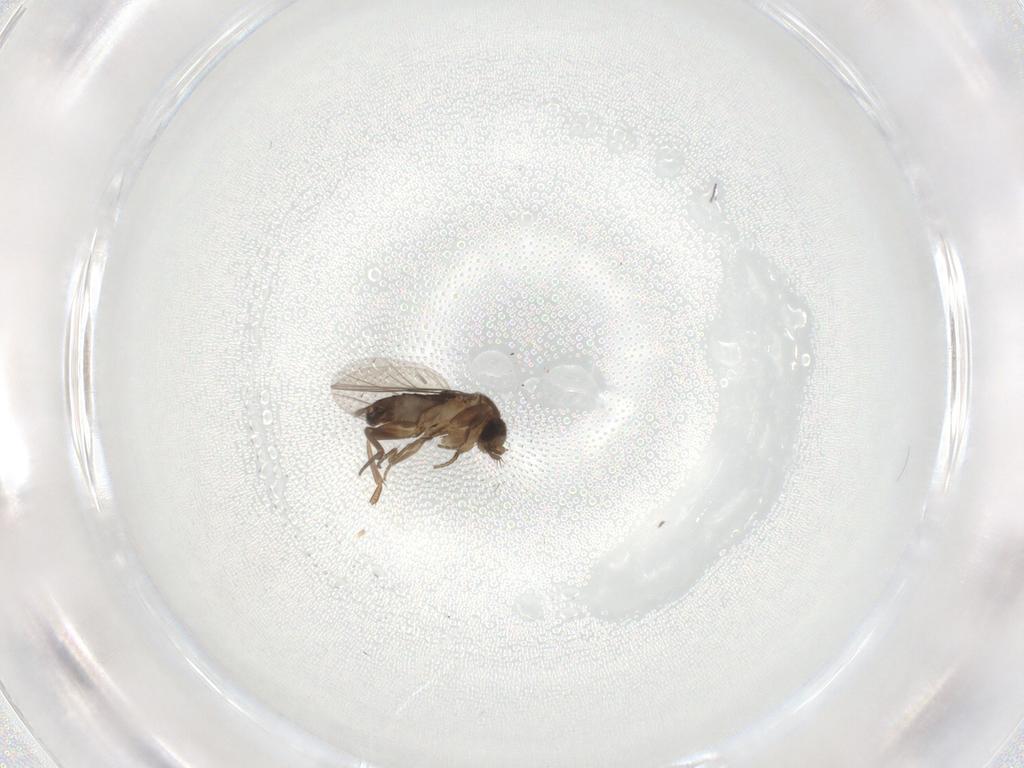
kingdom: Animalia
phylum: Arthropoda
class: Insecta
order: Diptera
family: Phoridae
